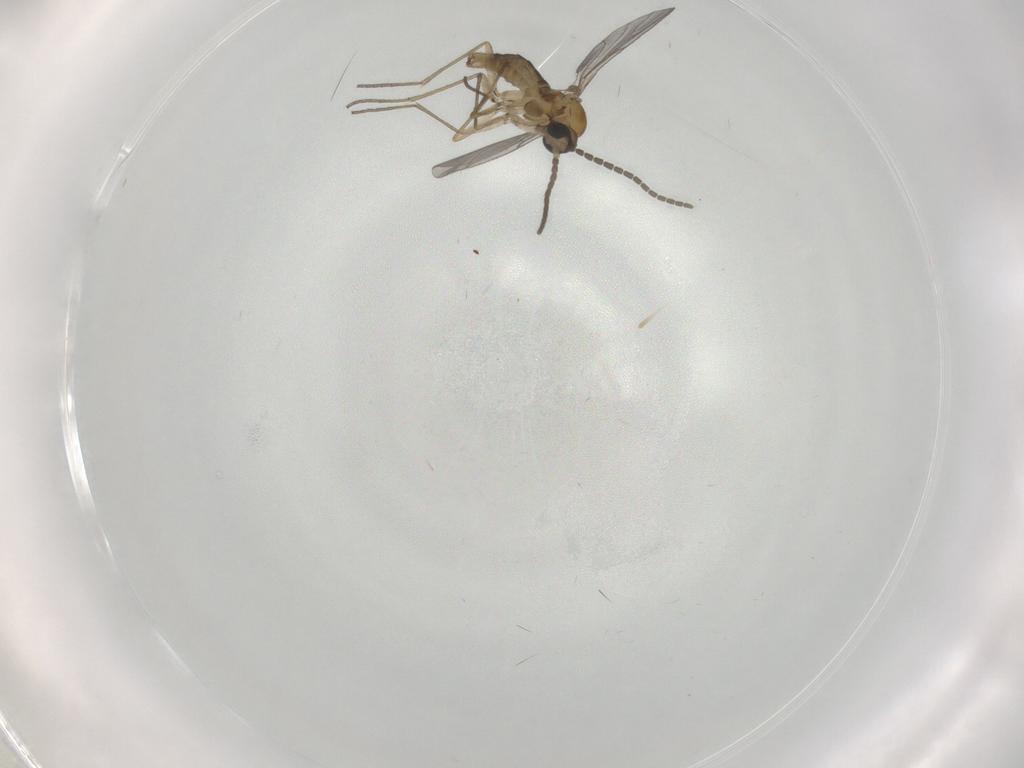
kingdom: Animalia
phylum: Arthropoda
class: Insecta
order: Diptera
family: Sciaridae
